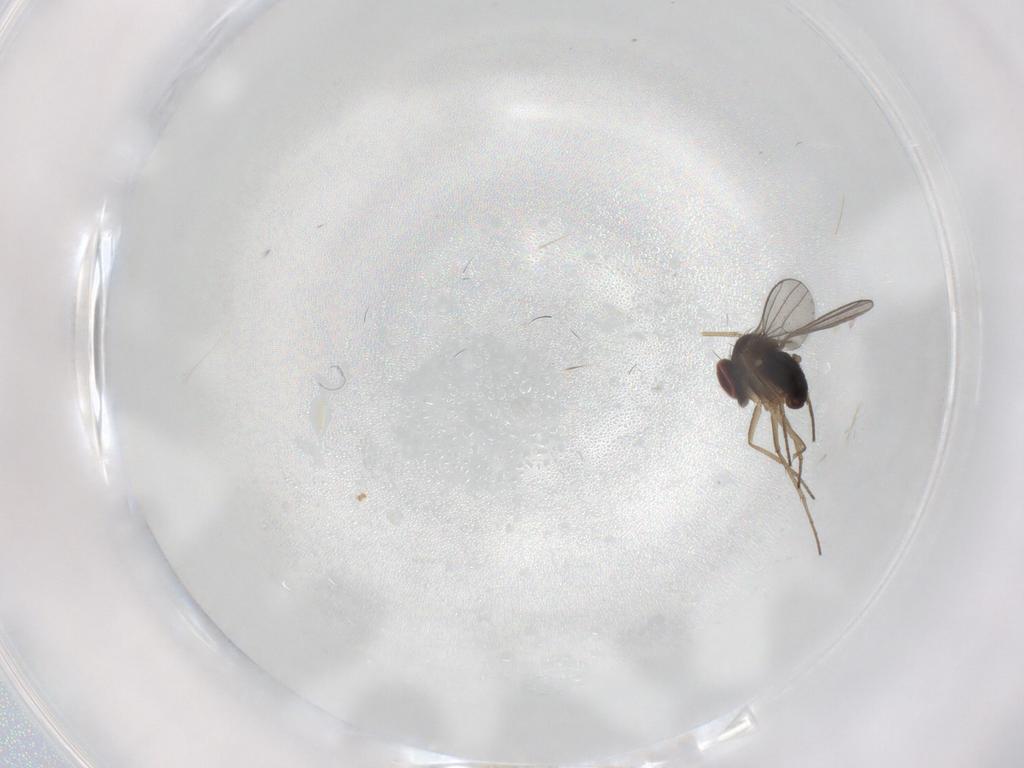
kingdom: Animalia
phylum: Arthropoda
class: Insecta
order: Diptera
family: Dolichopodidae
